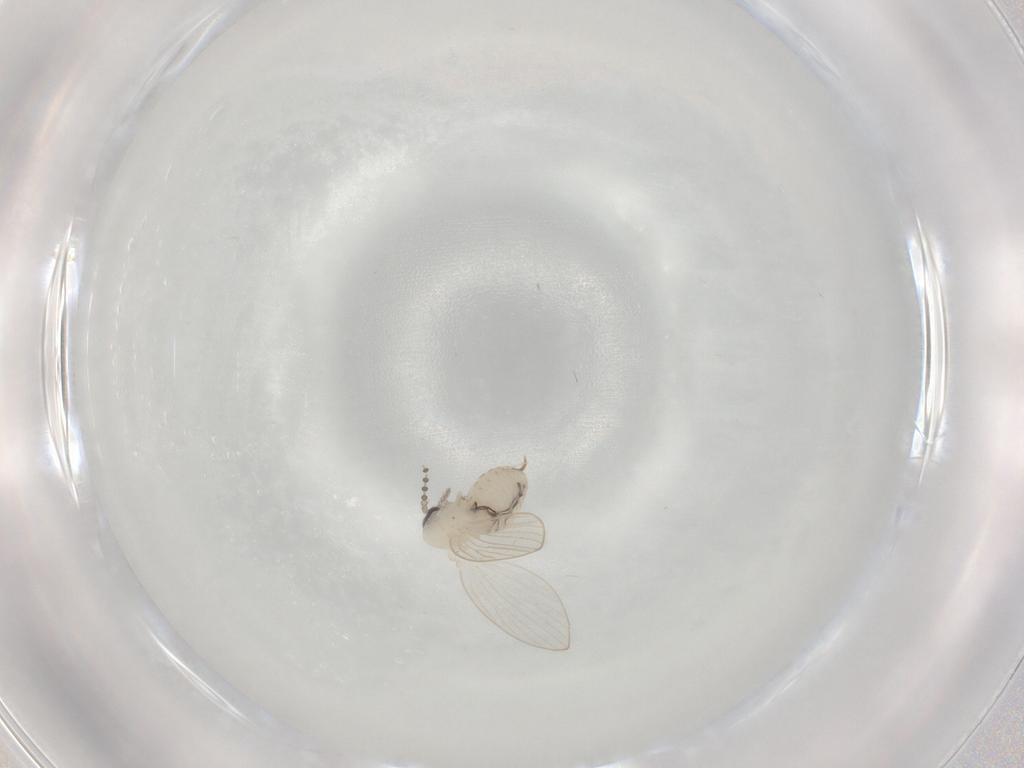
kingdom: Animalia
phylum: Arthropoda
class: Insecta
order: Diptera
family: Psychodidae
